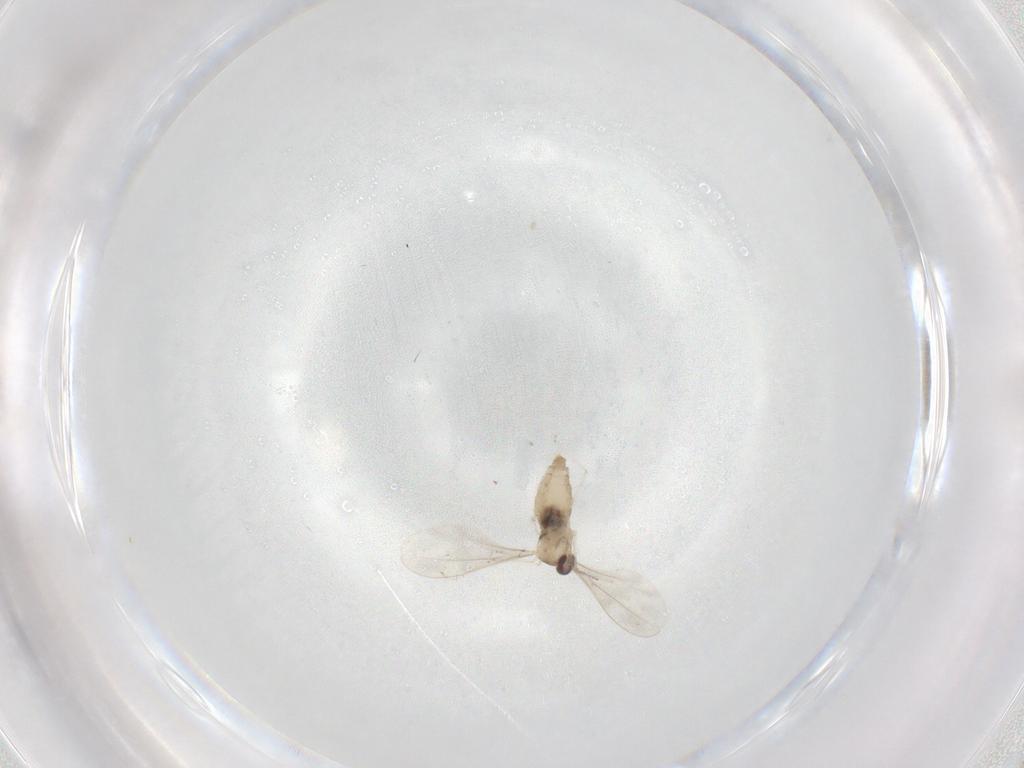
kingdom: Animalia
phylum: Arthropoda
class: Insecta
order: Diptera
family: Cecidomyiidae
